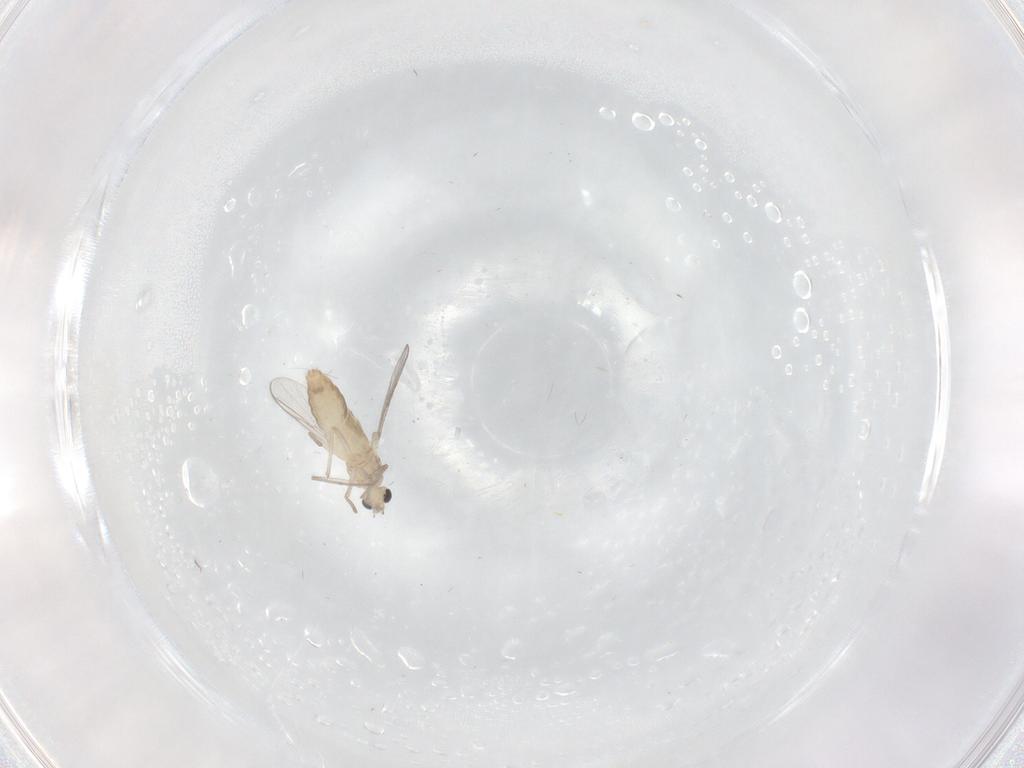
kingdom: Animalia
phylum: Arthropoda
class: Insecta
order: Diptera
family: Chironomidae
